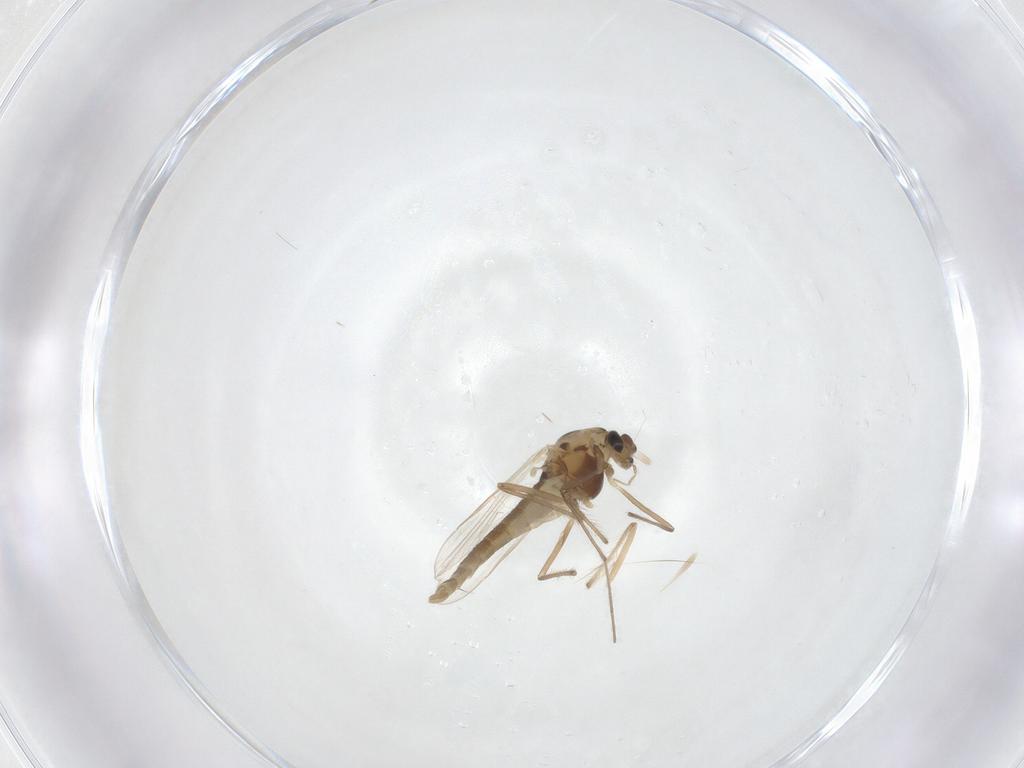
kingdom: Animalia
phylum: Arthropoda
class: Insecta
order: Diptera
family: Chironomidae
